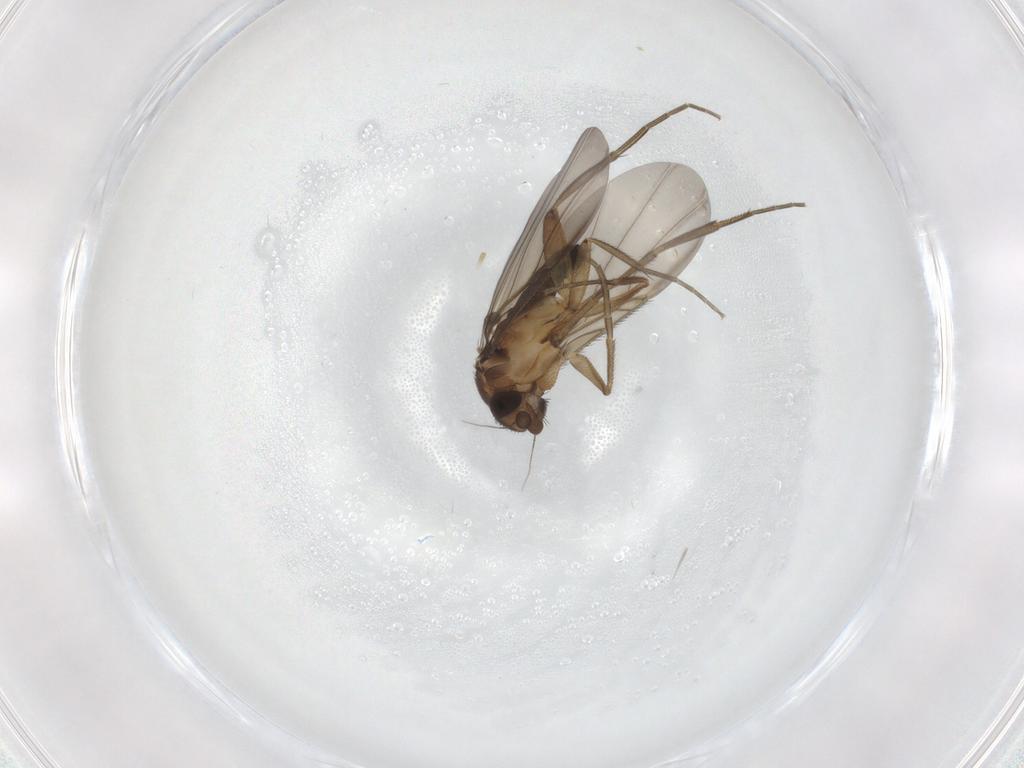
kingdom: Animalia
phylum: Arthropoda
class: Insecta
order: Diptera
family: Phoridae
